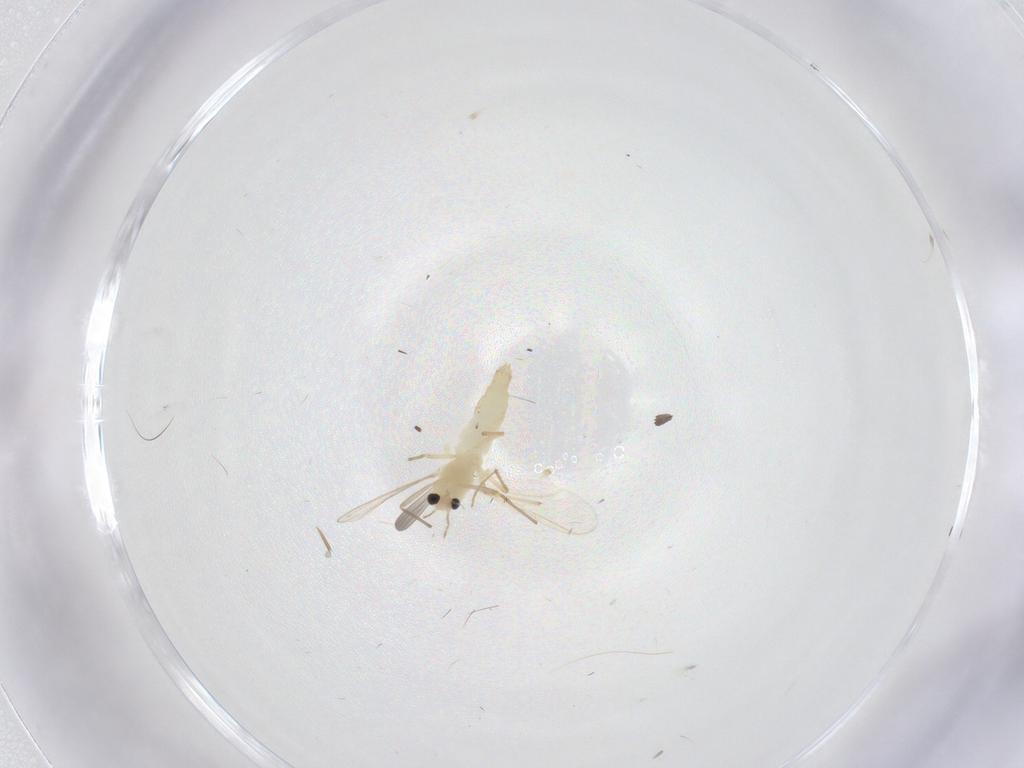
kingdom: Animalia
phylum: Arthropoda
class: Insecta
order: Diptera
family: Chironomidae
